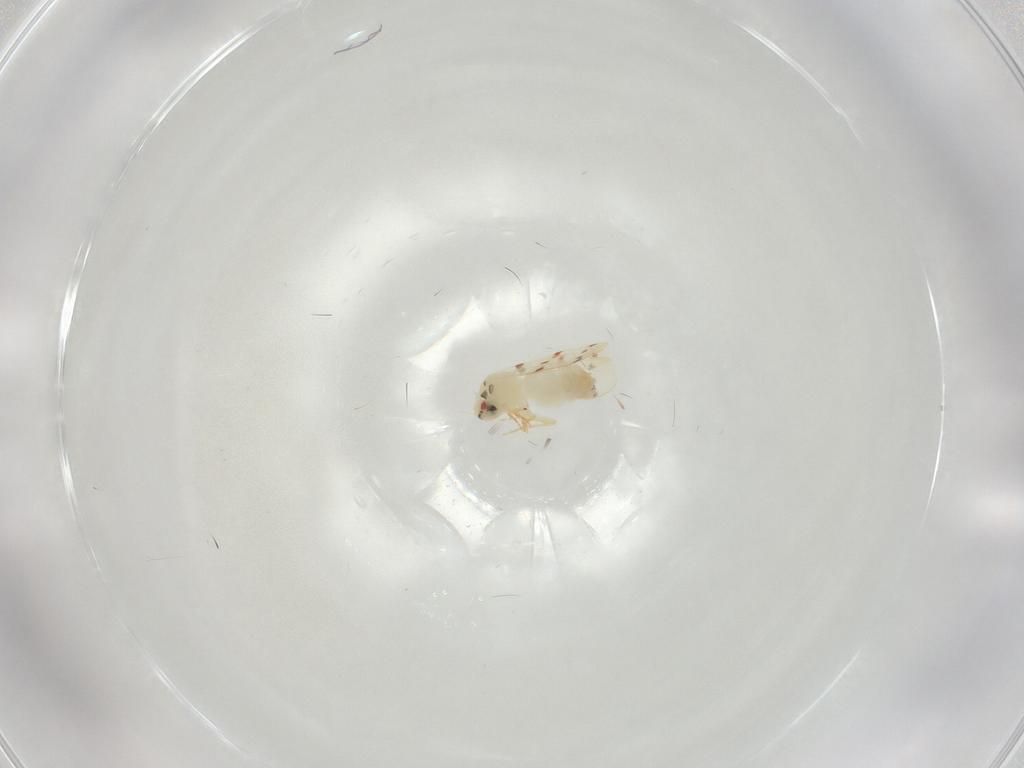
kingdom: Animalia
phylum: Arthropoda
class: Insecta
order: Hemiptera
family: Aleyrodidae
